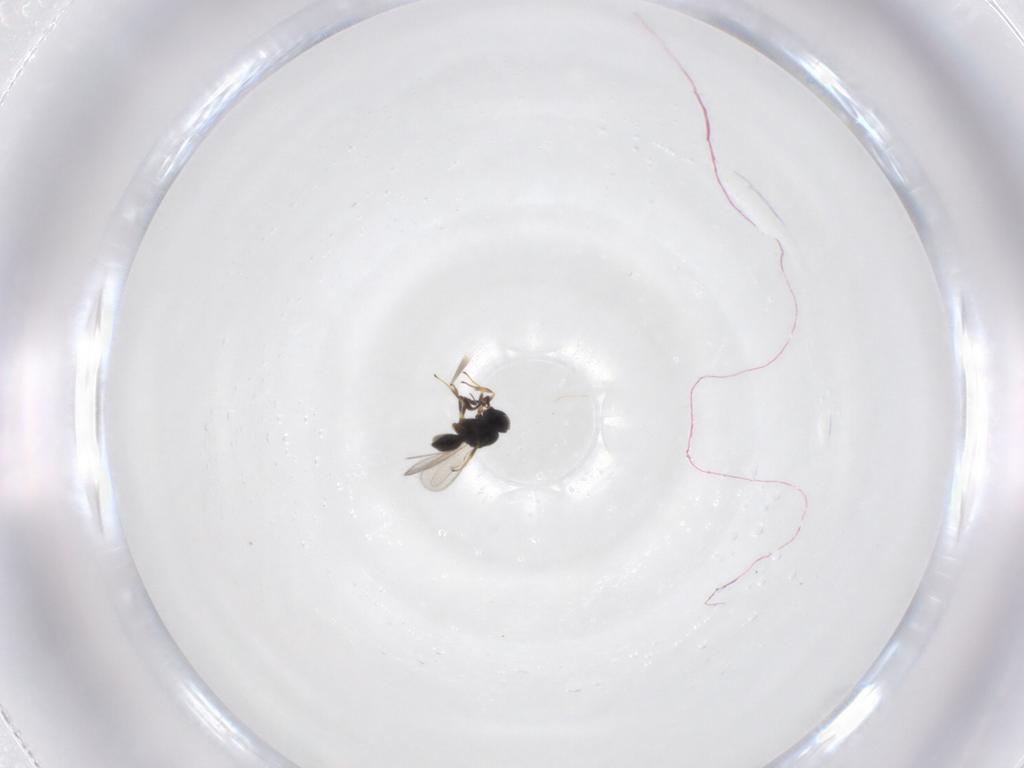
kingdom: Animalia
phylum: Arthropoda
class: Insecta
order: Hymenoptera
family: Scelionidae
